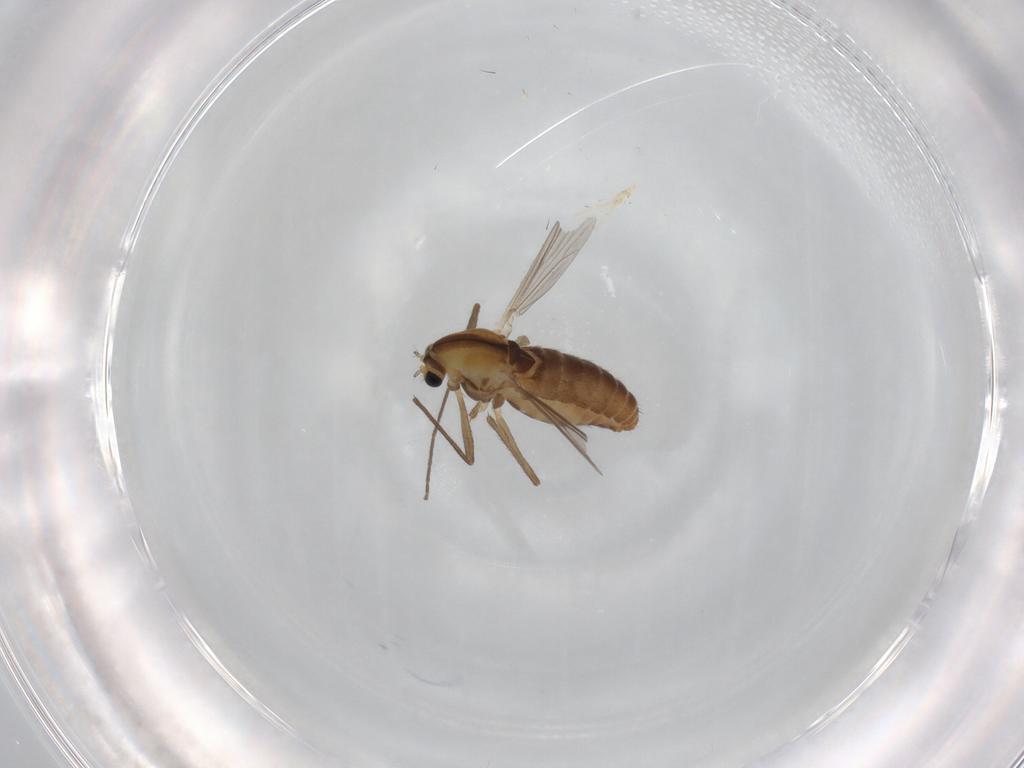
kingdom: Animalia
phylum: Arthropoda
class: Insecta
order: Diptera
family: Chironomidae
